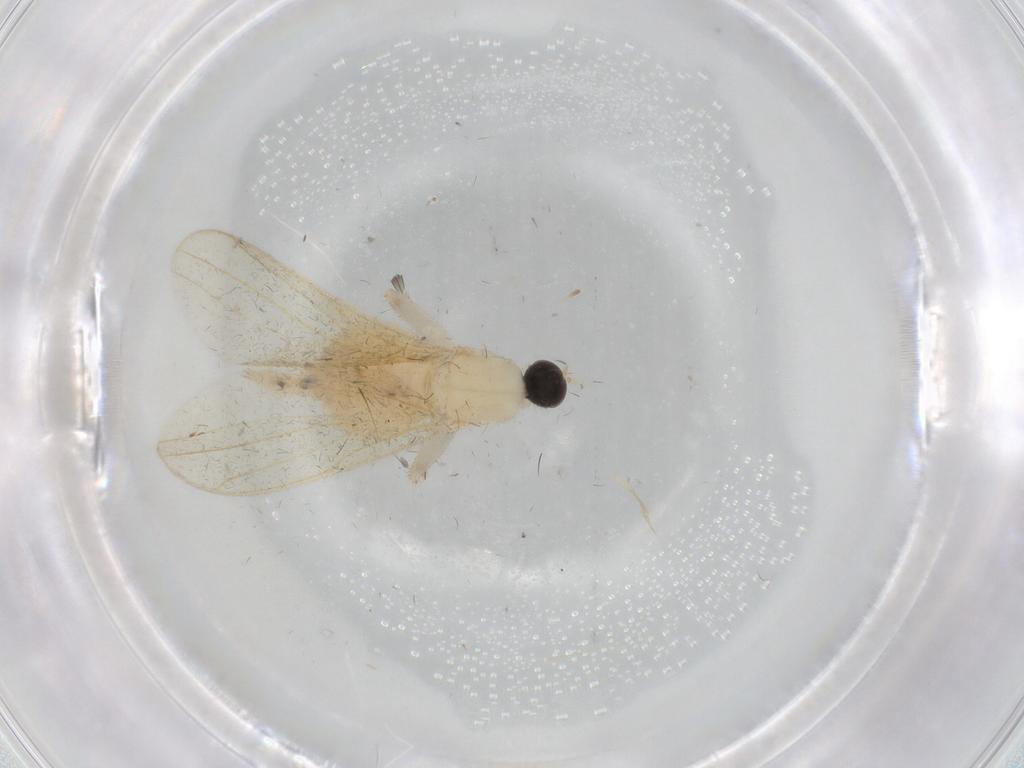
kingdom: Animalia
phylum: Arthropoda
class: Insecta
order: Diptera
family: Hybotidae
